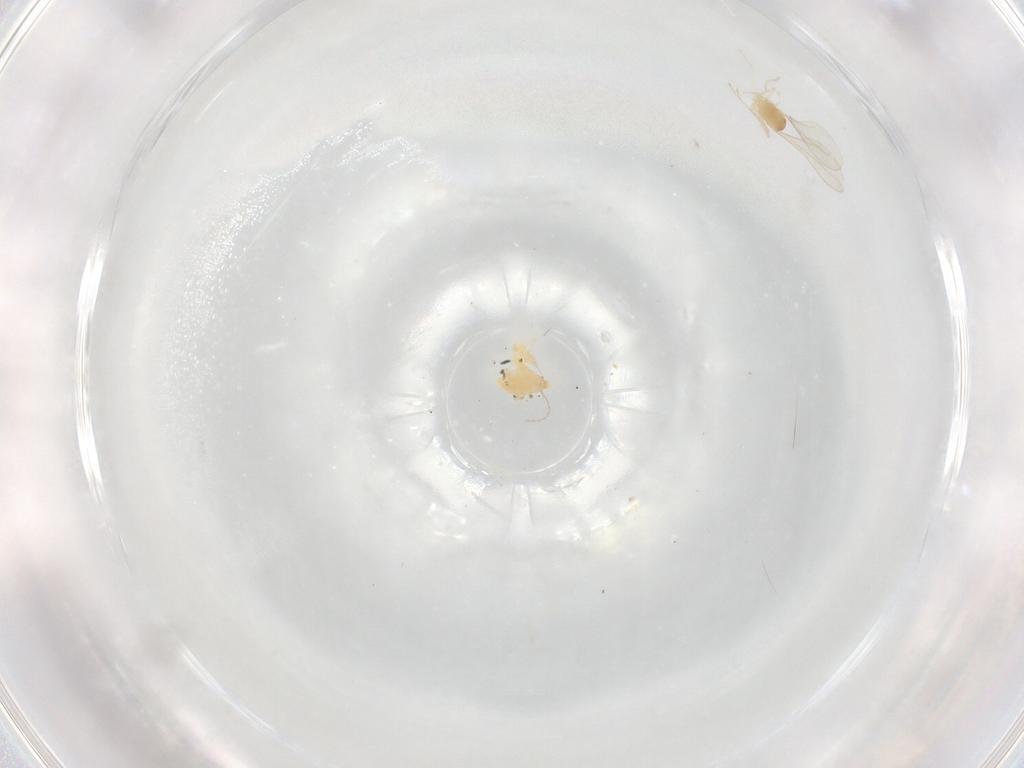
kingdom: Animalia
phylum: Arthropoda
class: Insecta
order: Diptera
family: Cecidomyiidae
